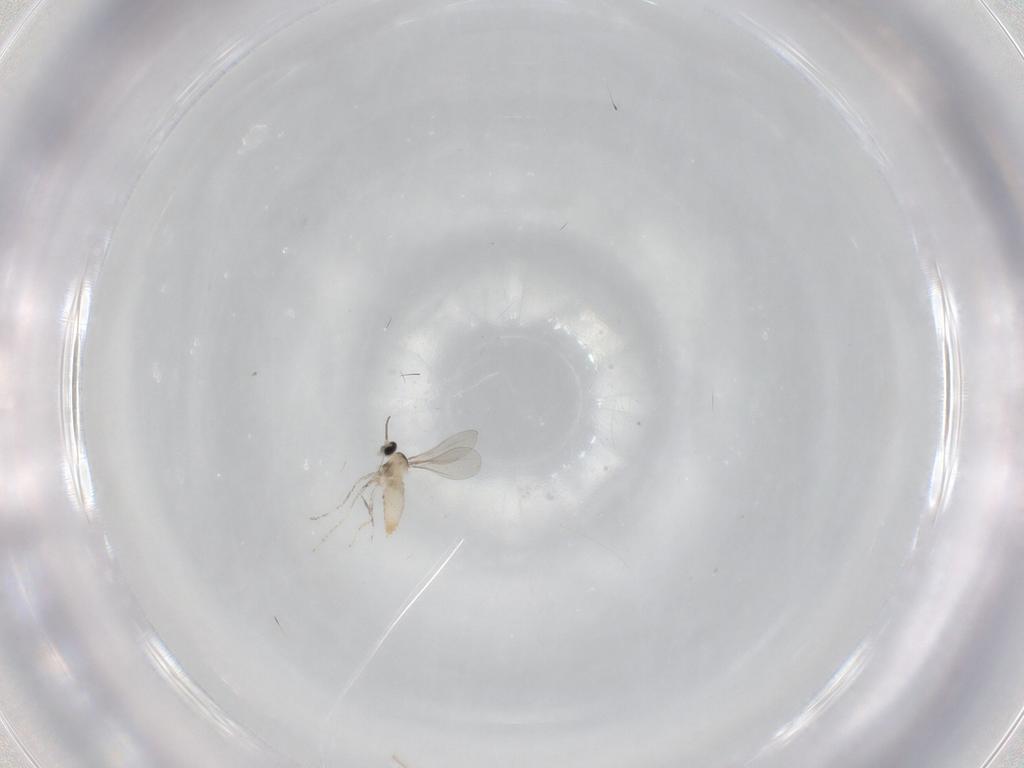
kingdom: Animalia
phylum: Arthropoda
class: Insecta
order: Diptera
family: Cecidomyiidae
